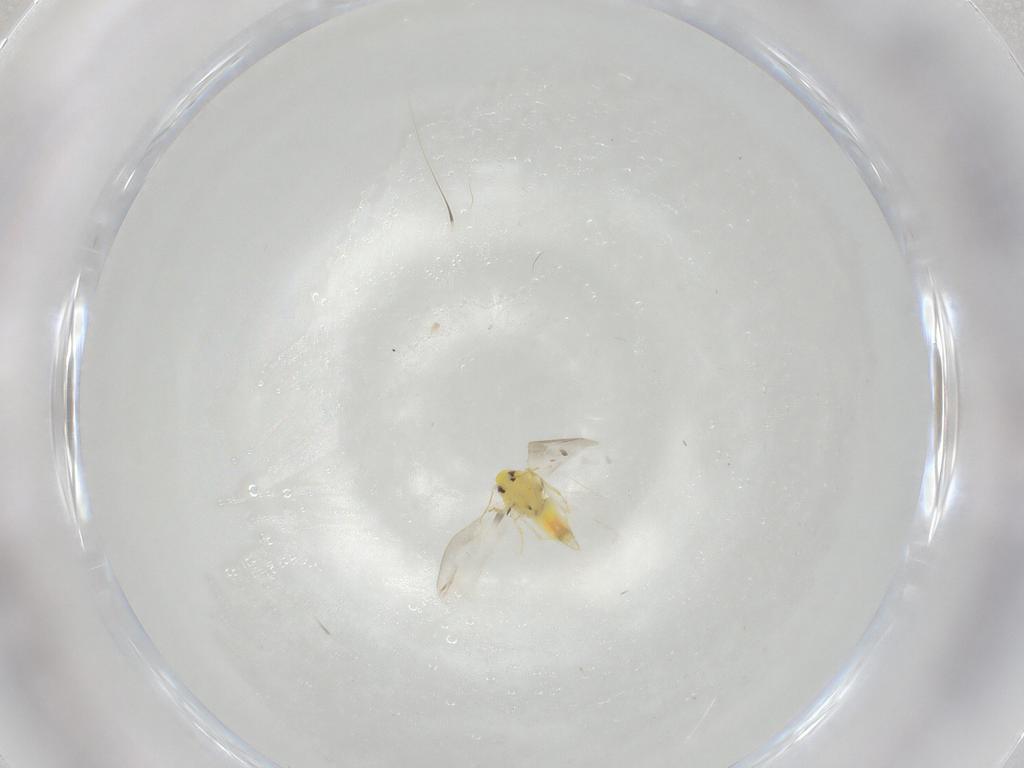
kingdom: Animalia
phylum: Arthropoda
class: Insecta
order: Hemiptera
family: Aleyrodidae
